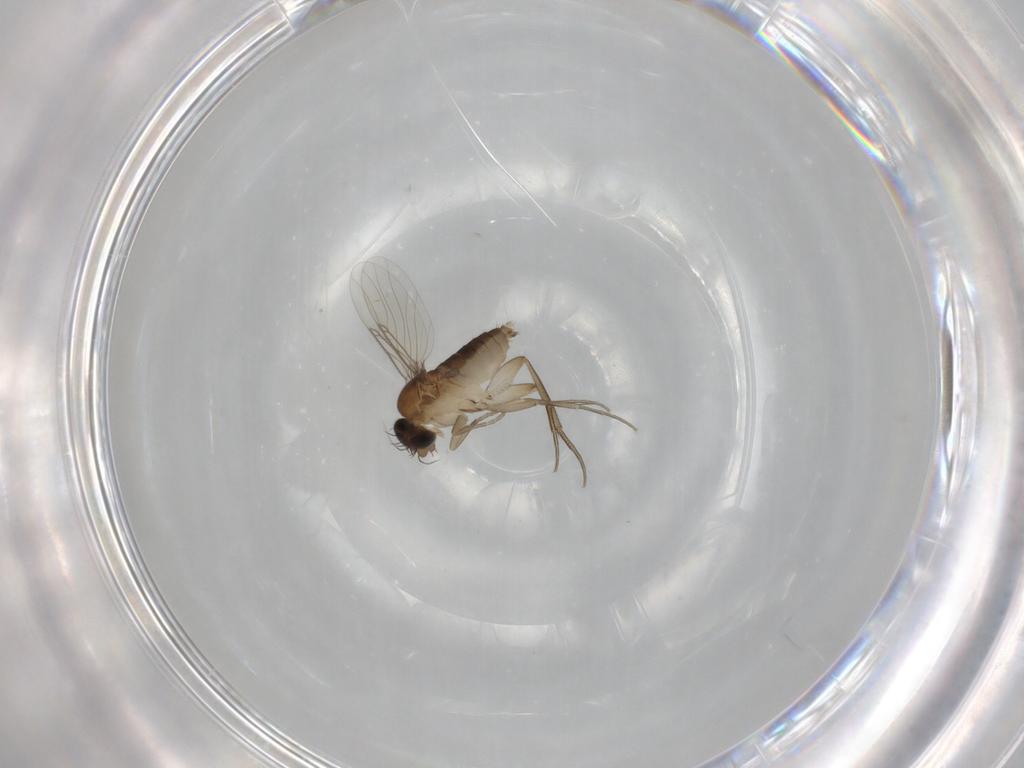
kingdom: Animalia
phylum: Arthropoda
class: Insecta
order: Diptera
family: Phoridae
